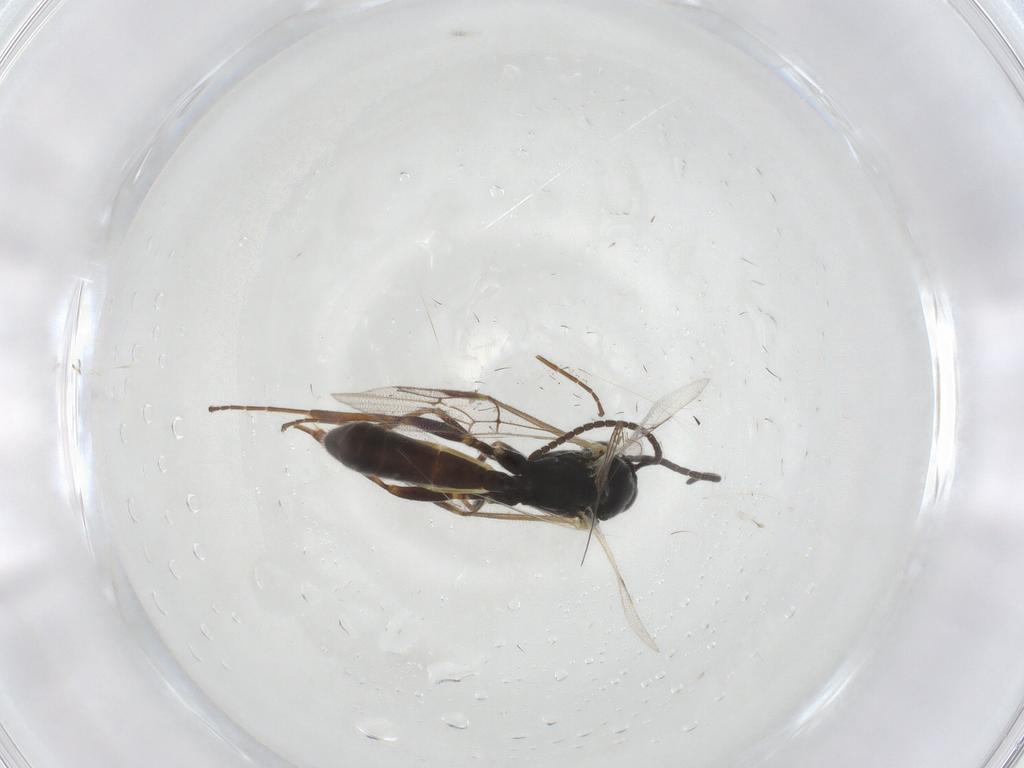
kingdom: Animalia
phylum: Arthropoda
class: Insecta
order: Hymenoptera
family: Ichneumonidae
